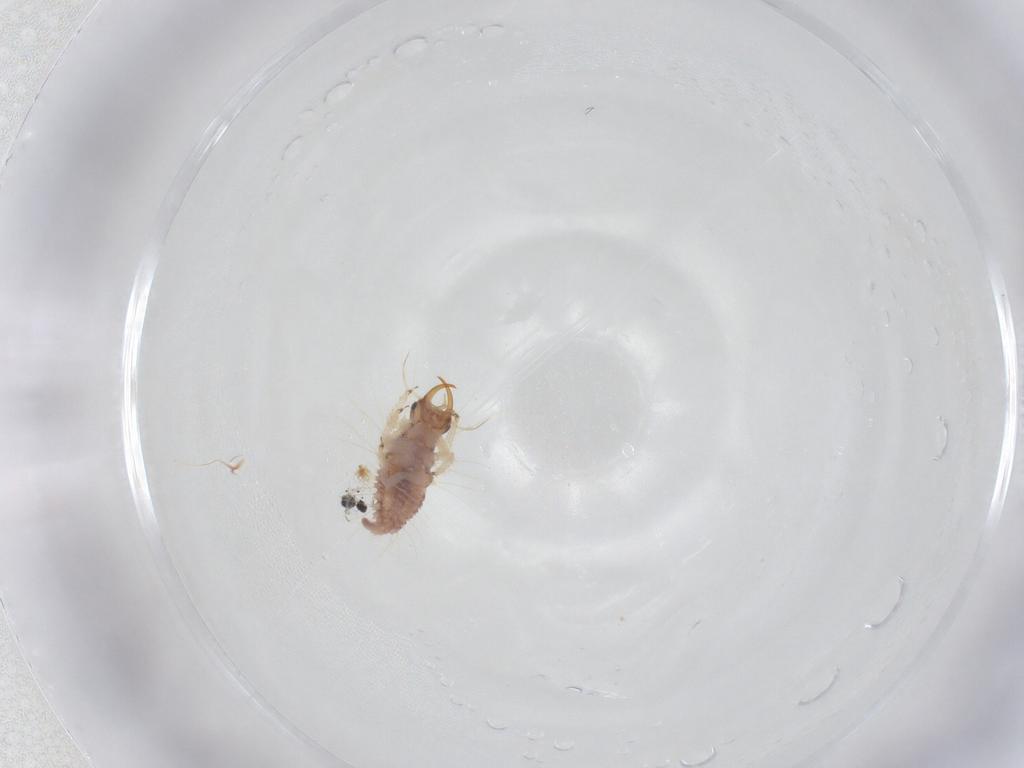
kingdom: Animalia
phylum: Arthropoda
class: Insecta
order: Neuroptera
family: Chrysopidae
